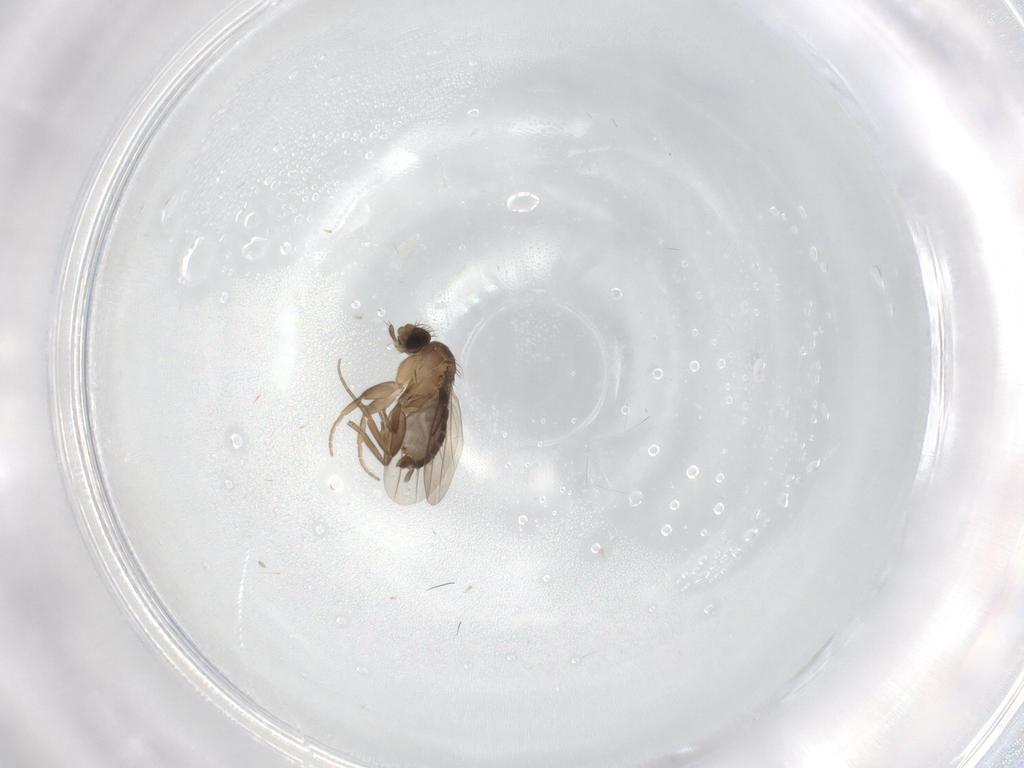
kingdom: Animalia
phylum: Arthropoda
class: Insecta
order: Diptera
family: Phoridae
